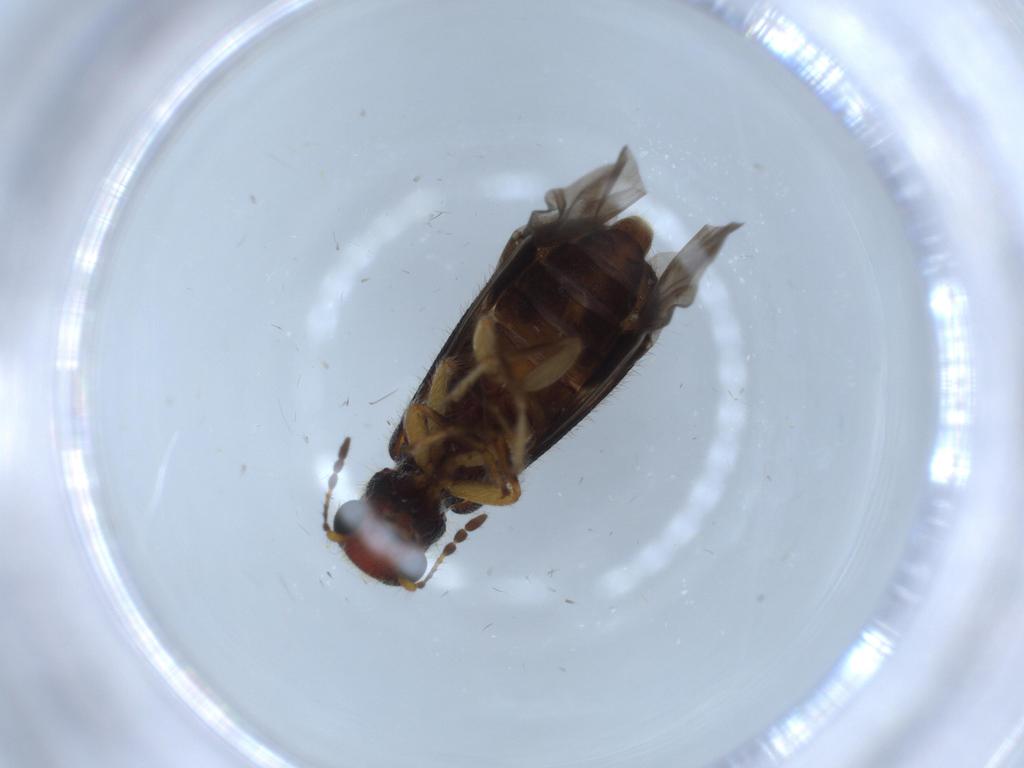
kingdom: Animalia
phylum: Arthropoda
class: Insecta
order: Coleoptera
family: Cleridae
